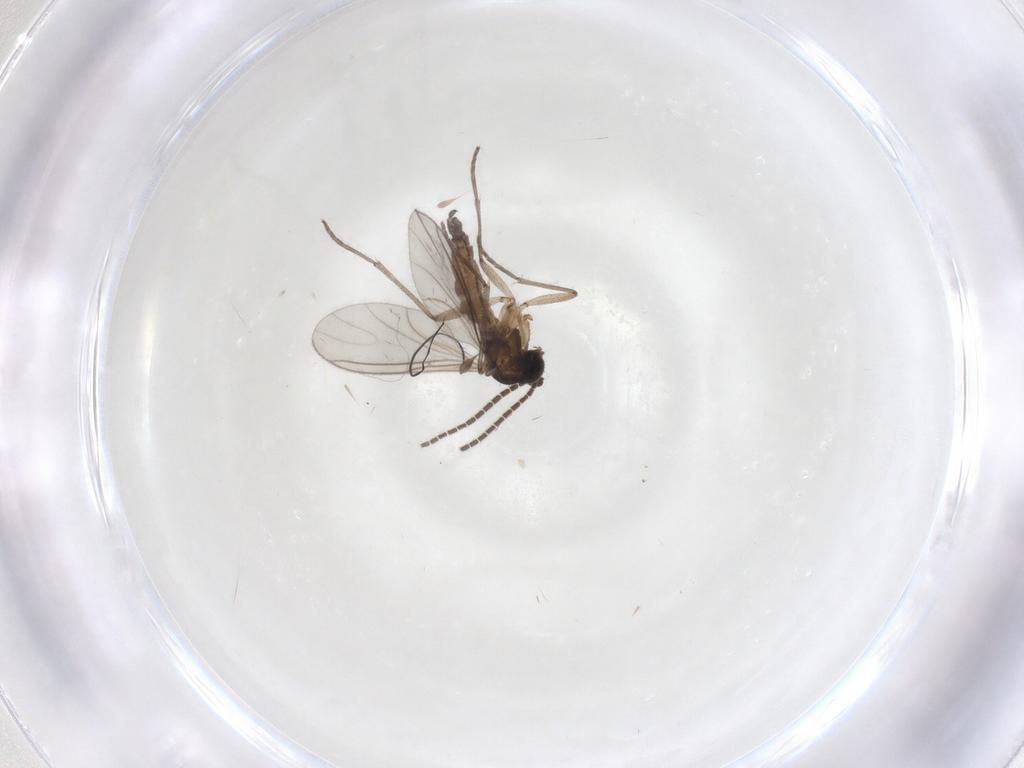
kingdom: Animalia
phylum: Arthropoda
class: Insecta
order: Diptera
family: Sciaridae
